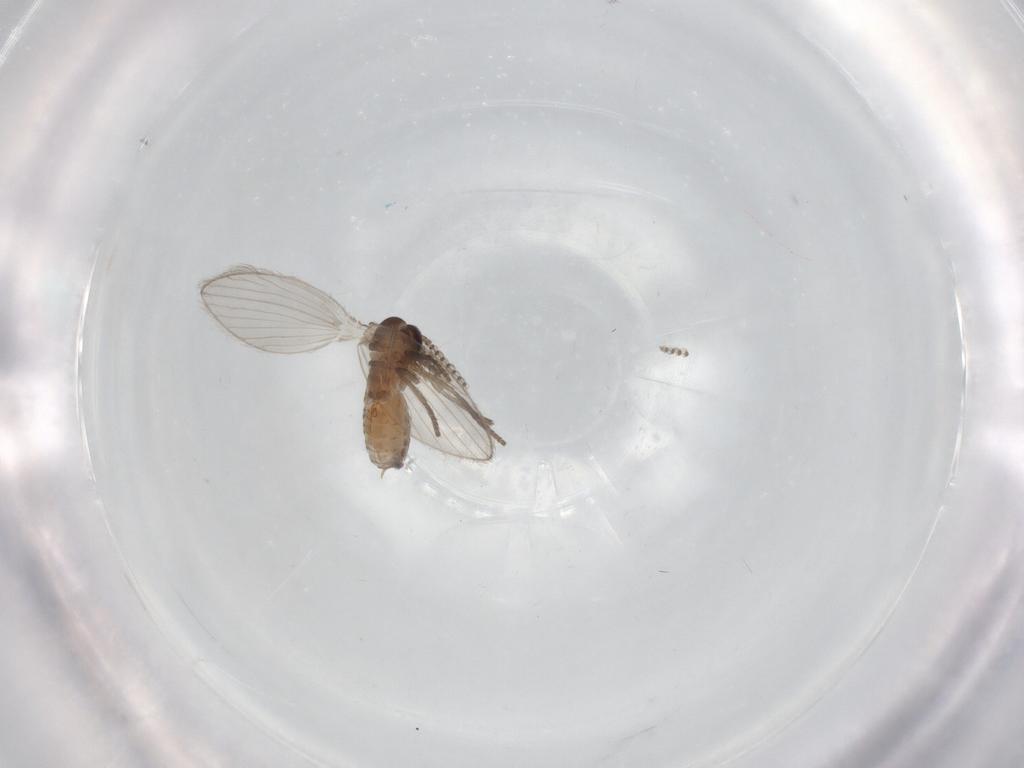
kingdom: Animalia
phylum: Arthropoda
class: Insecta
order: Diptera
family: Psychodidae
